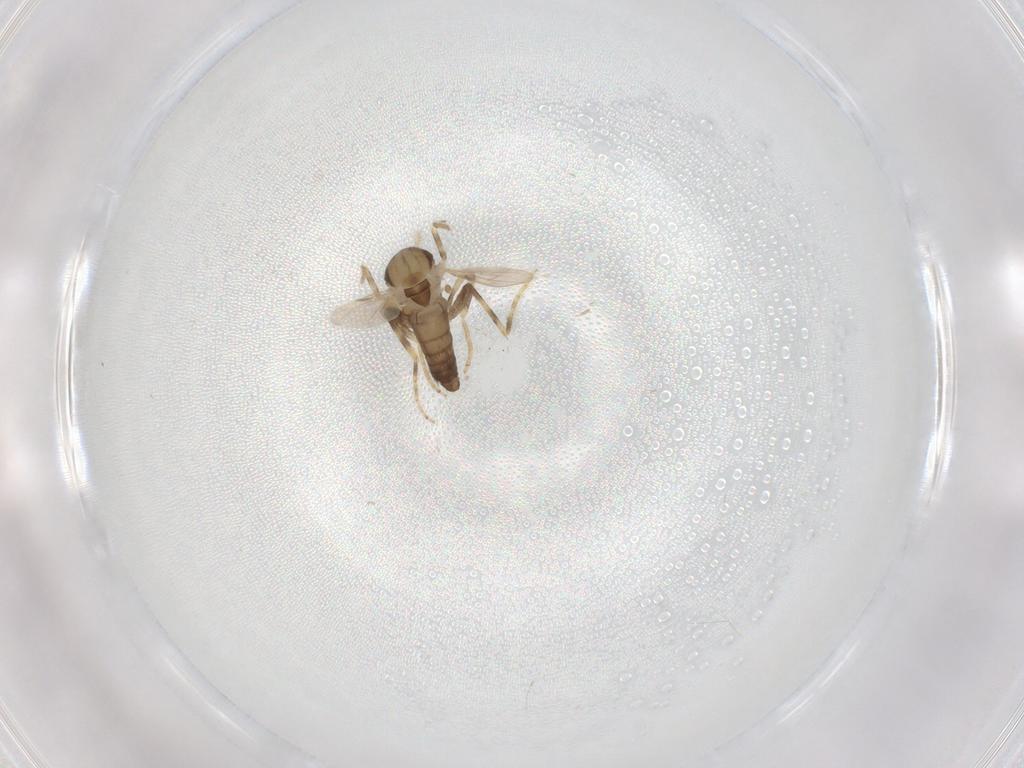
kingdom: Animalia
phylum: Arthropoda
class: Insecta
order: Diptera
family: Ceratopogonidae
